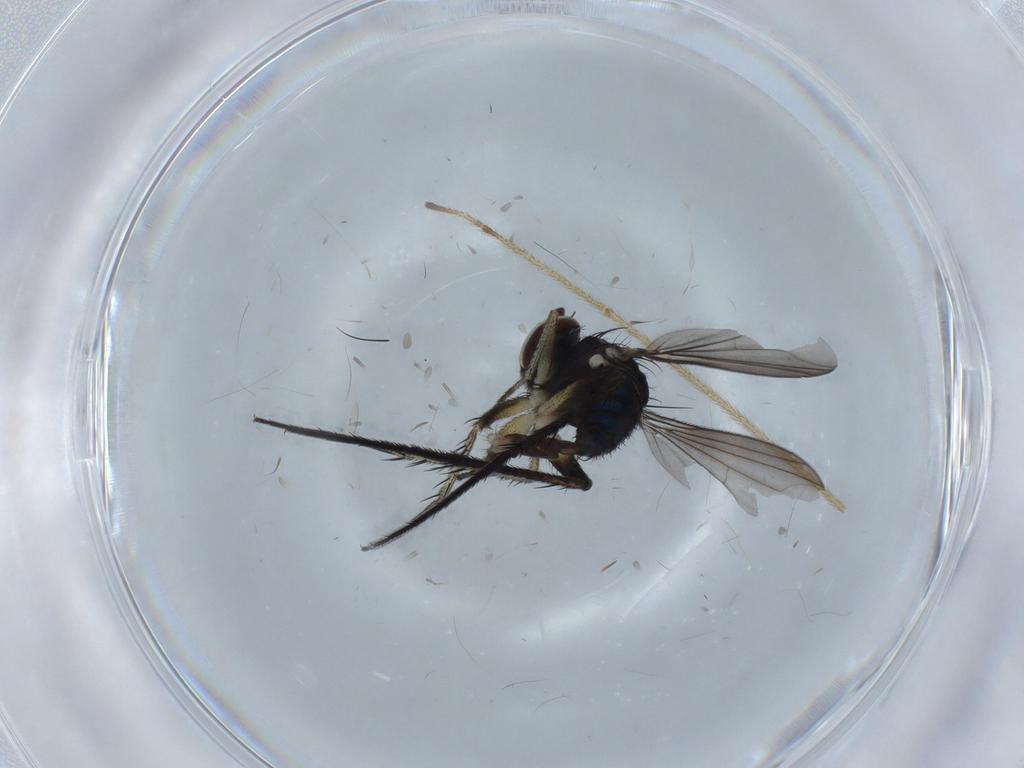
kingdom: Animalia
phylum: Arthropoda
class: Insecta
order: Diptera
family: Dolichopodidae
